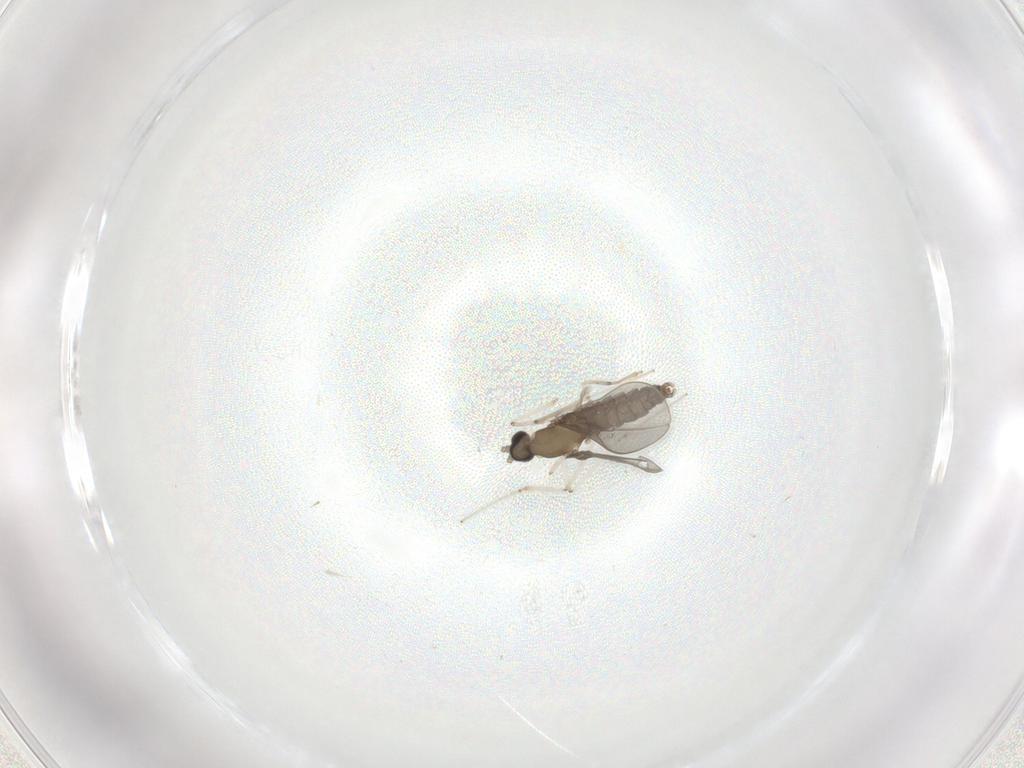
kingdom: Animalia
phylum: Arthropoda
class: Insecta
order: Diptera
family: Cecidomyiidae
